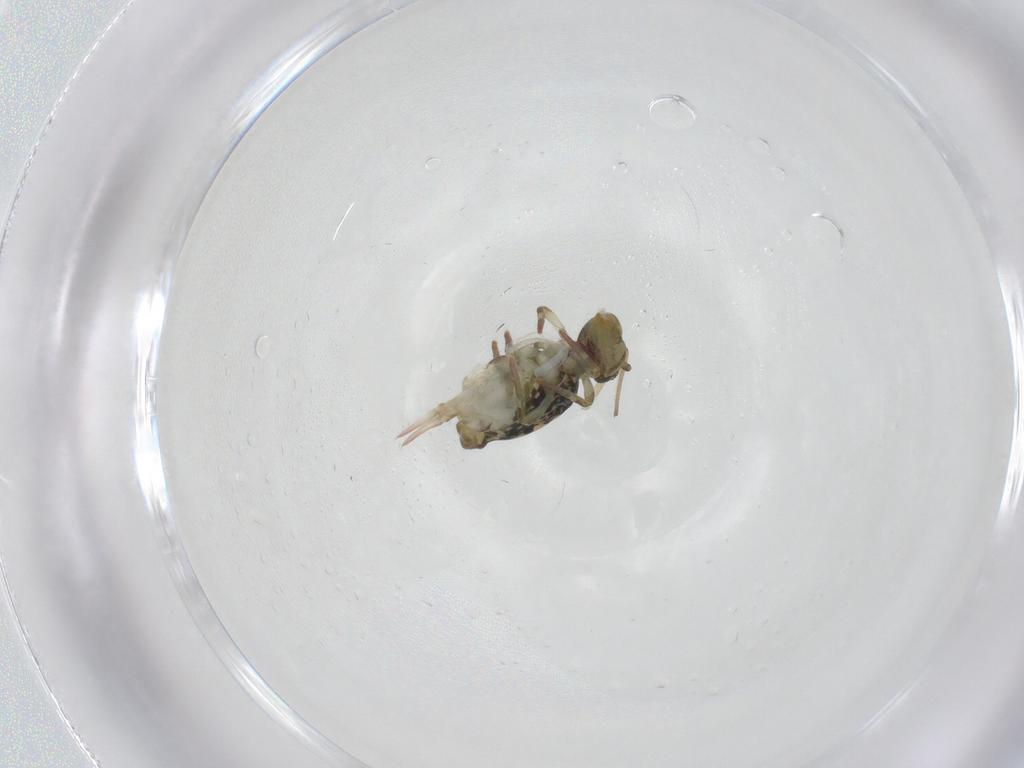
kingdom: Animalia
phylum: Arthropoda
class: Collembola
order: Symphypleona
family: Dicyrtomidae
